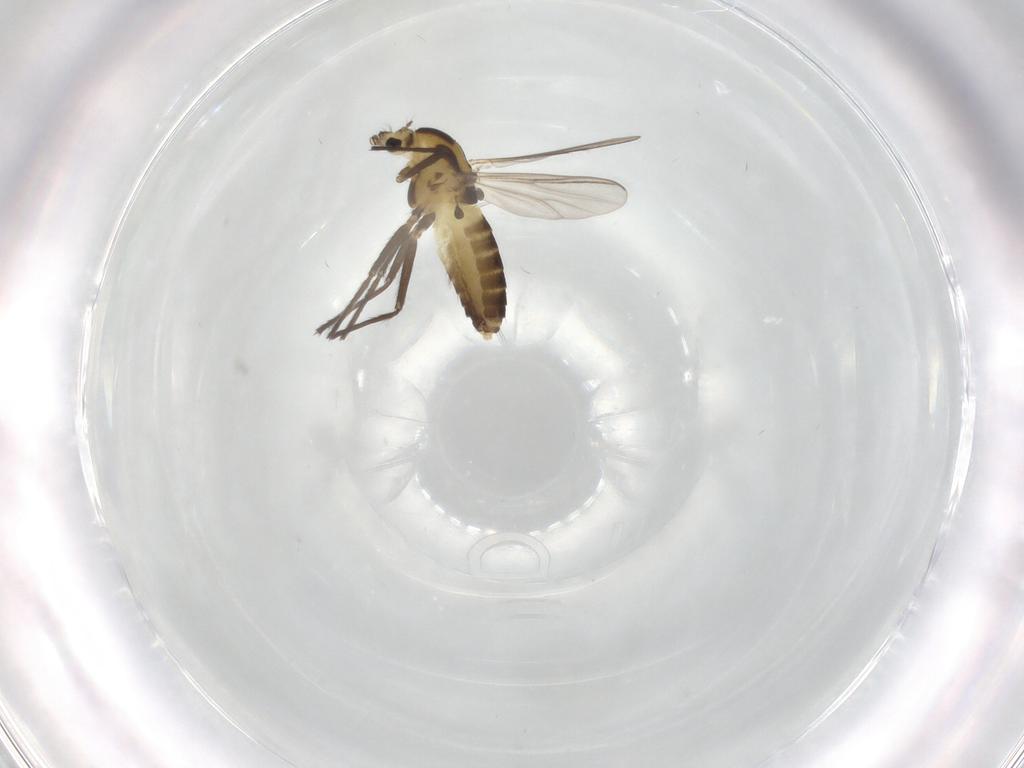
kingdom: Animalia
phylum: Arthropoda
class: Insecta
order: Diptera
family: Chironomidae
